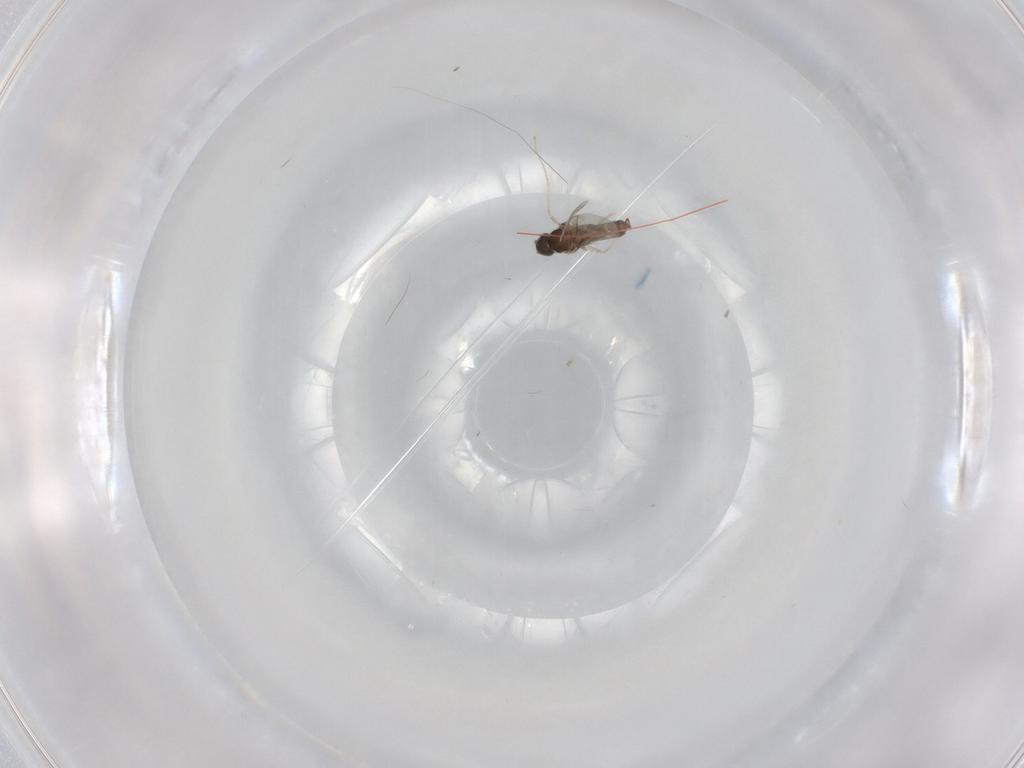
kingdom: Animalia
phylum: Arthropoda
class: Insecta
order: Diptera
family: Chironomidae
